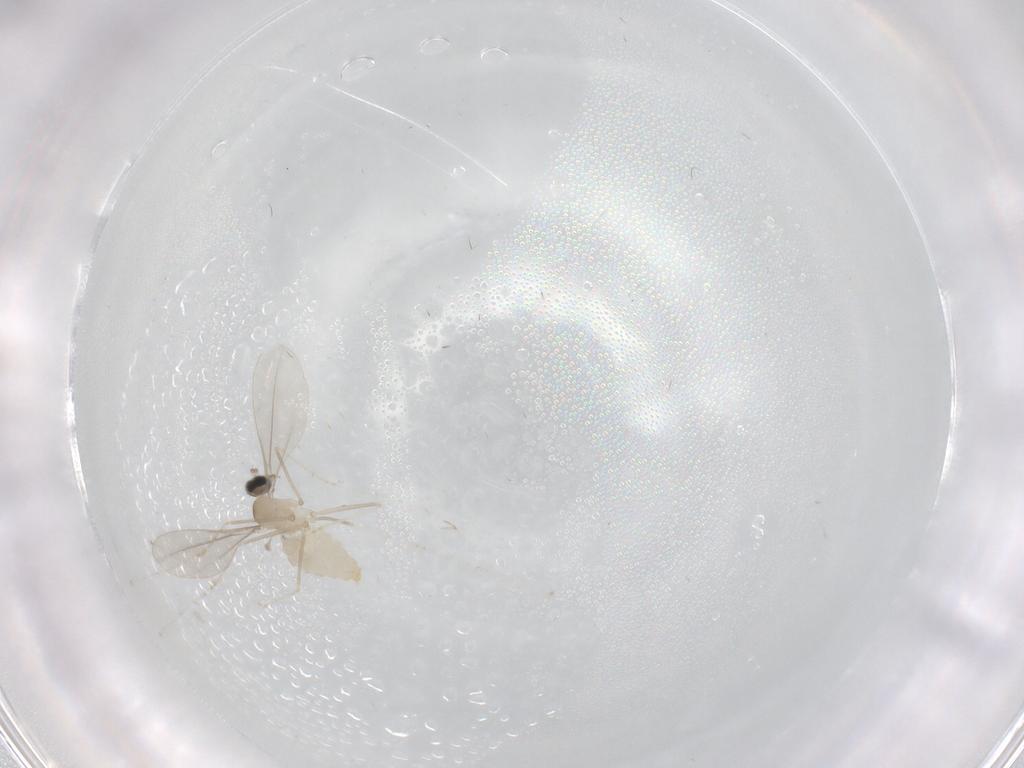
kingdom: Animalia
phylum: Arthropoda
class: Insecta
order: Diptera
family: Cecidomyiidae
